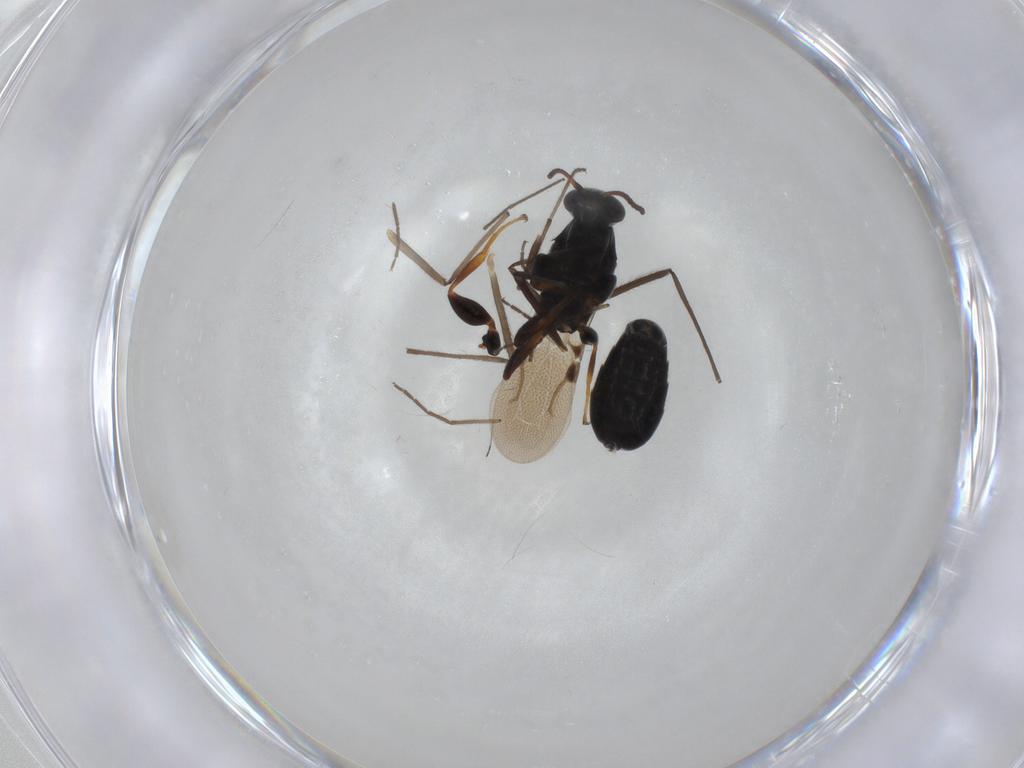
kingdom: Animalia
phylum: Arthropoda
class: Insecta
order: Hymenoptera
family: Bethylidae
